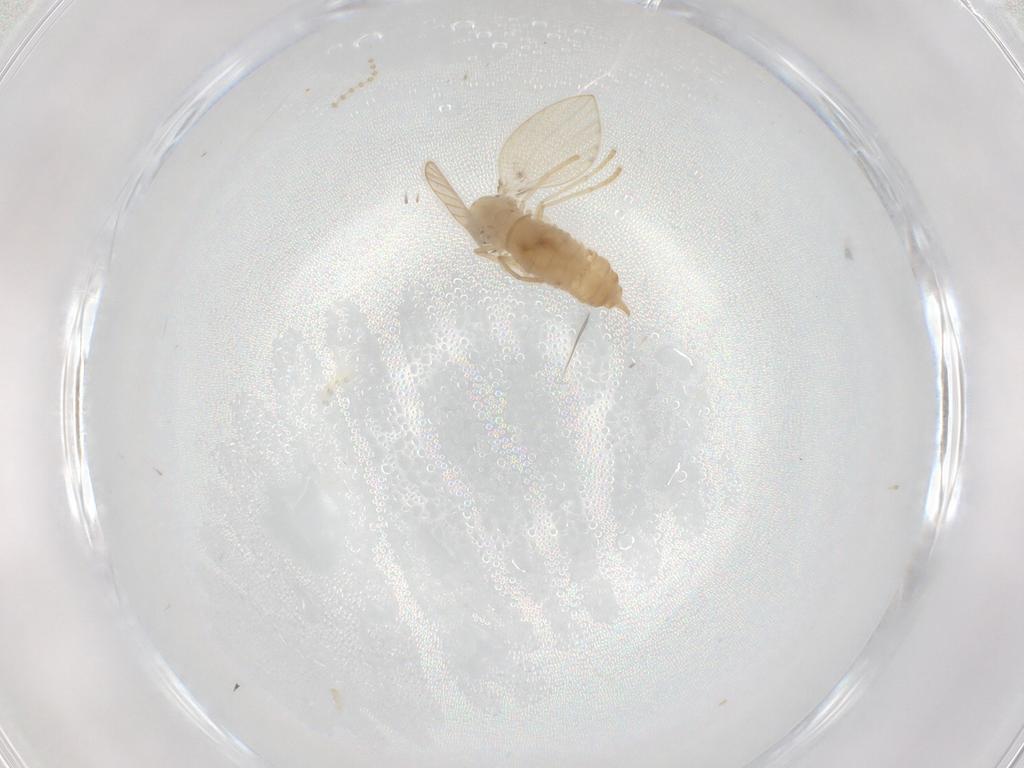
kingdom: Animalia
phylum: Arthropoda
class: Insecta
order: Diptera
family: Psychodidae
